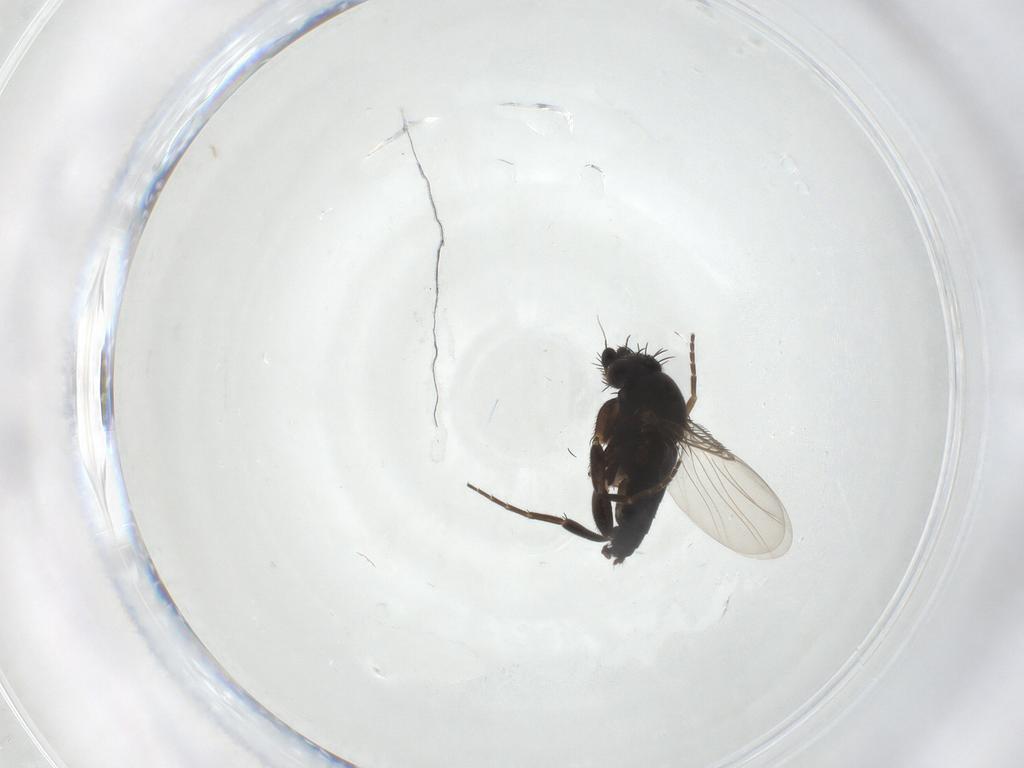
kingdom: Animalia
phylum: Arthropoda
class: Insecta
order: Diptera
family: Phoridae
